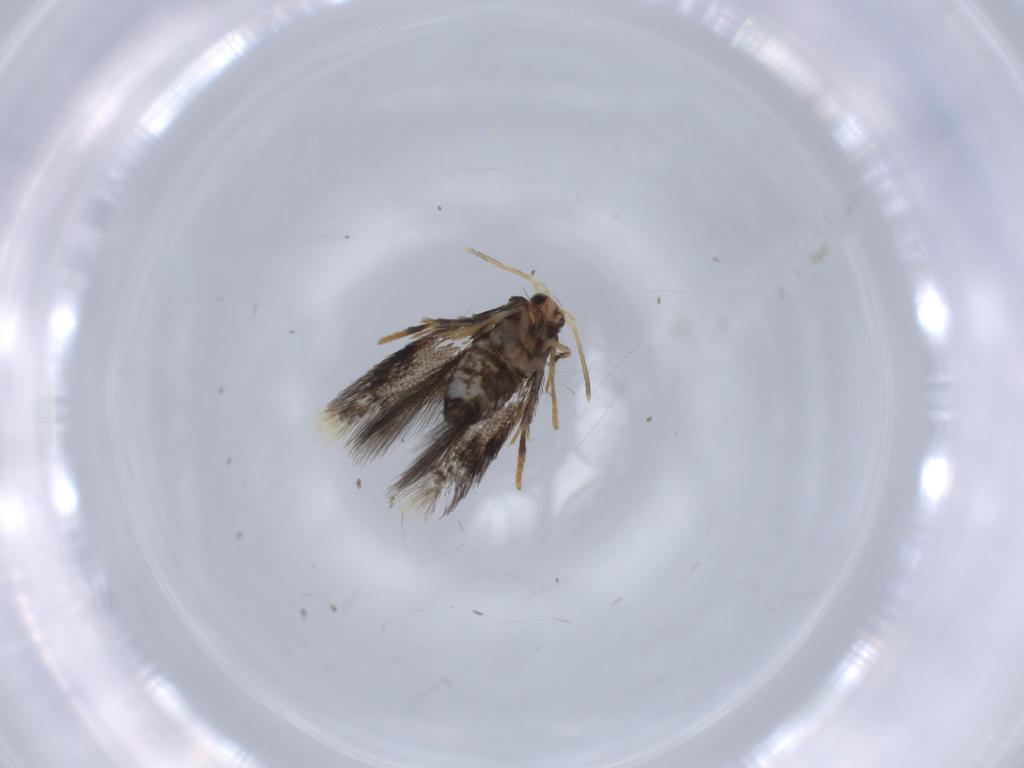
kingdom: Animalia
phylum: Arthropoda
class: Insecta
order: Lepidoptera
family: Nepticulidae
